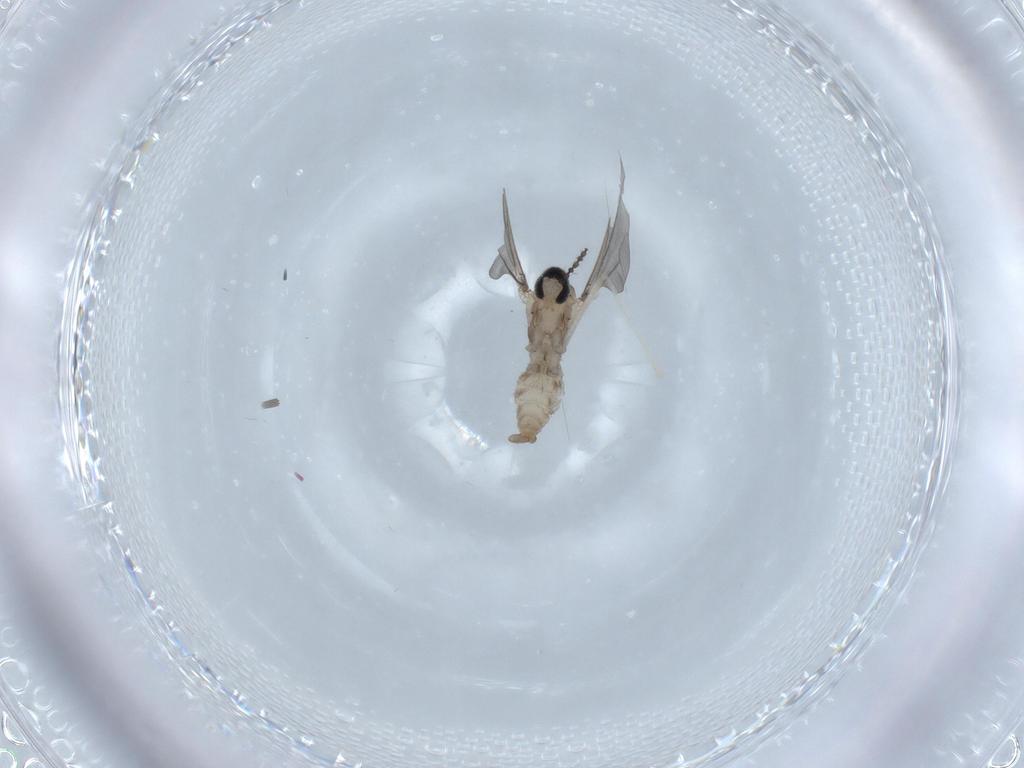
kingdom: Animalia
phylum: Arthropoda
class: Insecta
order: Diptera
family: Cecidomyiidae
